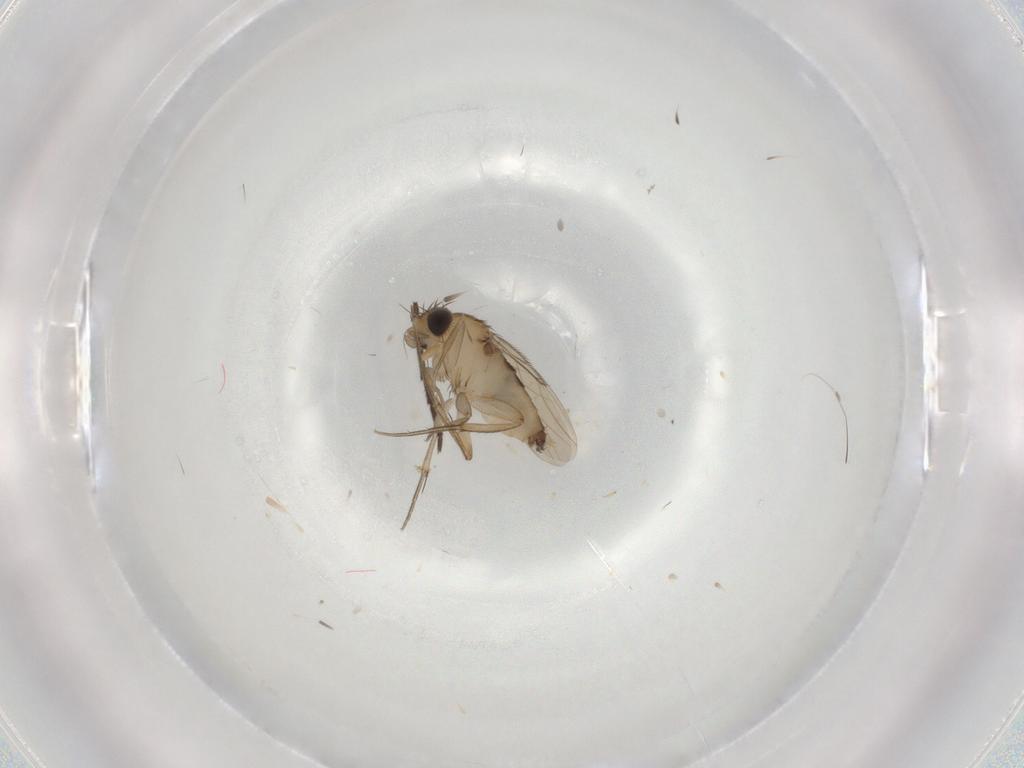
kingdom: Animalia
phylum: Arthropoda
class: Insecta
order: Diptera
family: Phoridae
